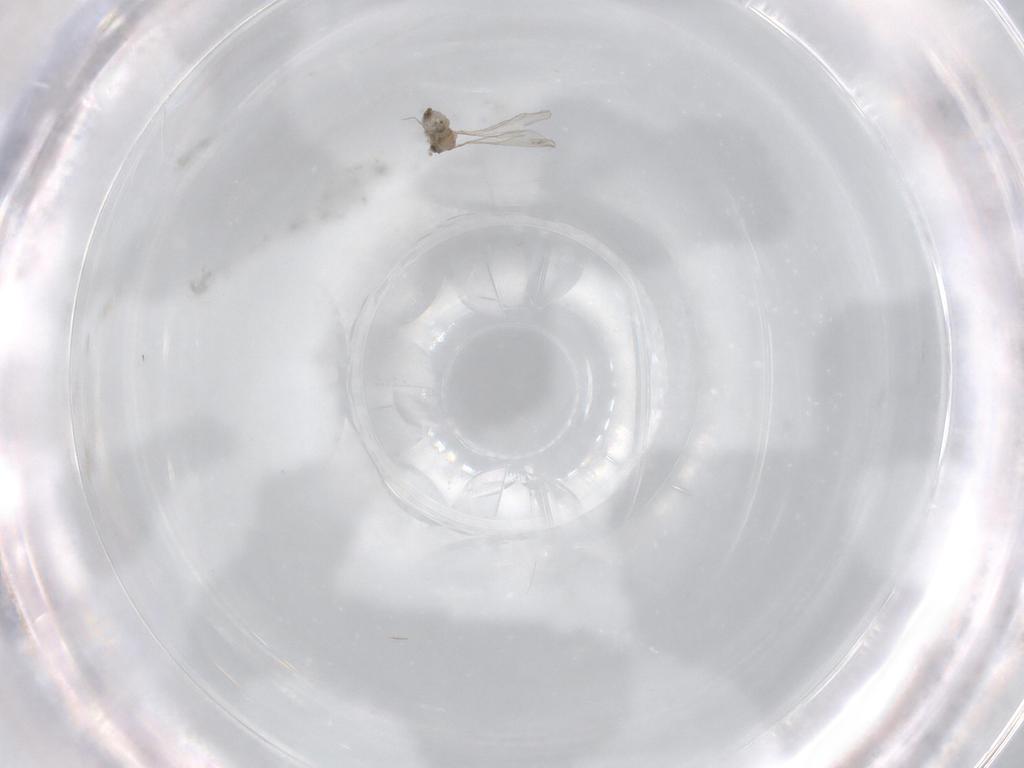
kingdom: Animalia
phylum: Arthropoda
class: Insecta
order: Diptera
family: Cecidomyiidae
